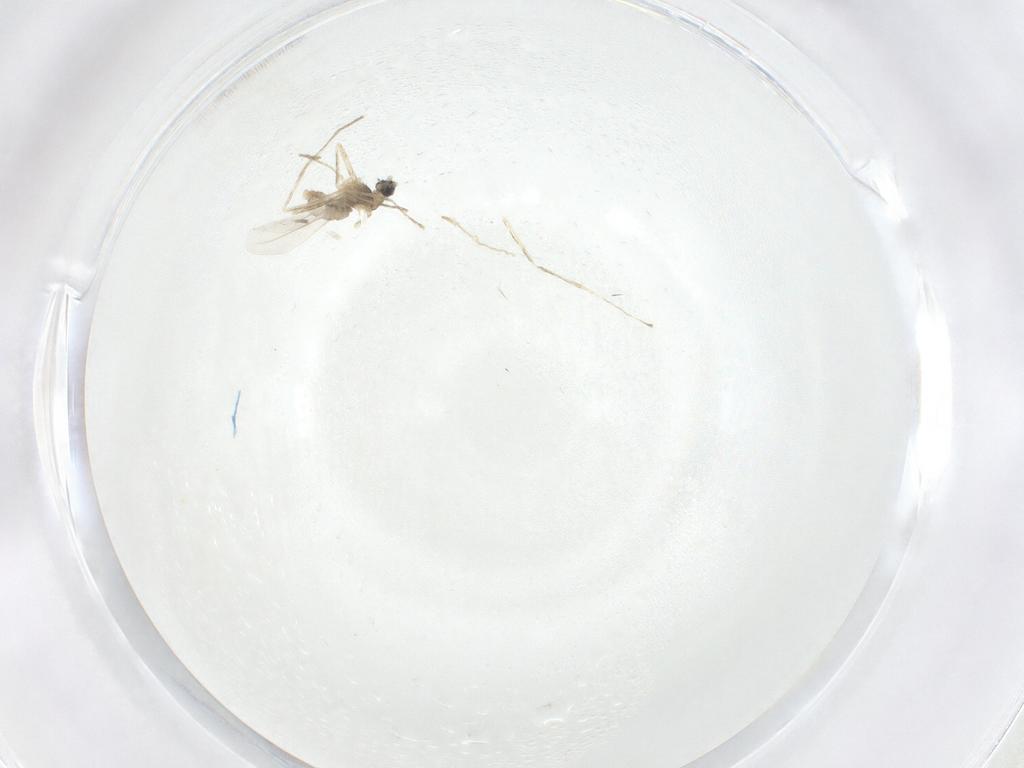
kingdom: Animalia
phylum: Arthropoda
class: Insecta
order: Diptera
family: Cecidomyiidae
